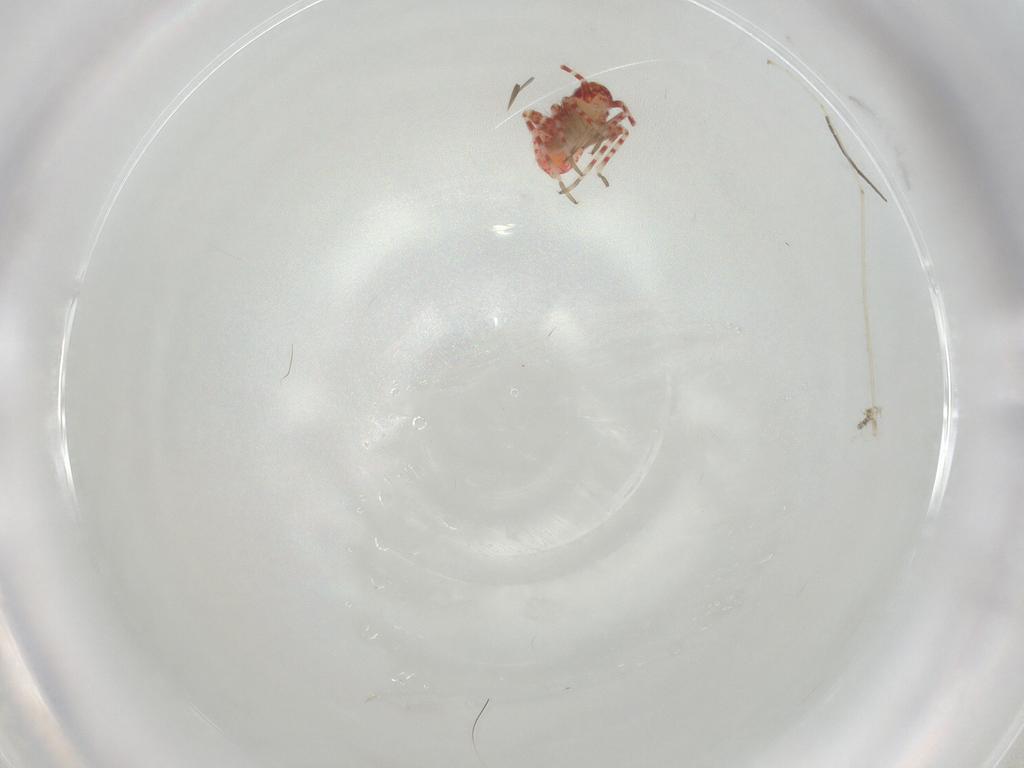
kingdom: Animalia
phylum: Arthropoda
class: Insecta
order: Hemiptera
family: Miridae
